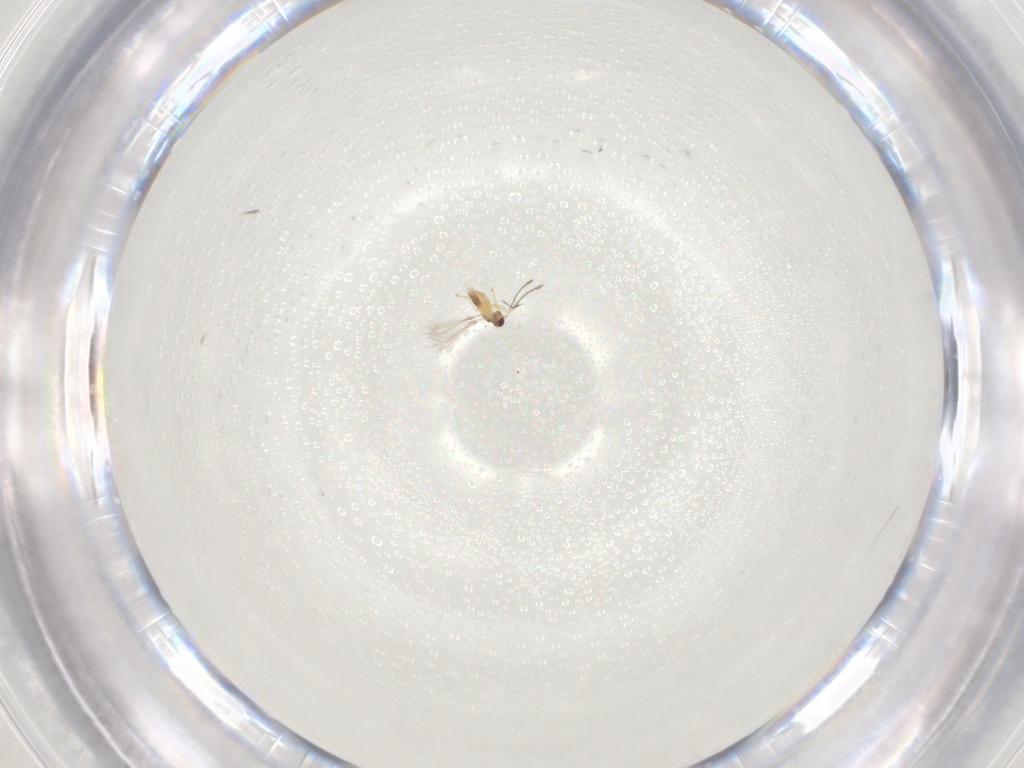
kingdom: Animalia
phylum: Arthropoda
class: Insecta
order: Hymenoptera
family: Mymaridae
